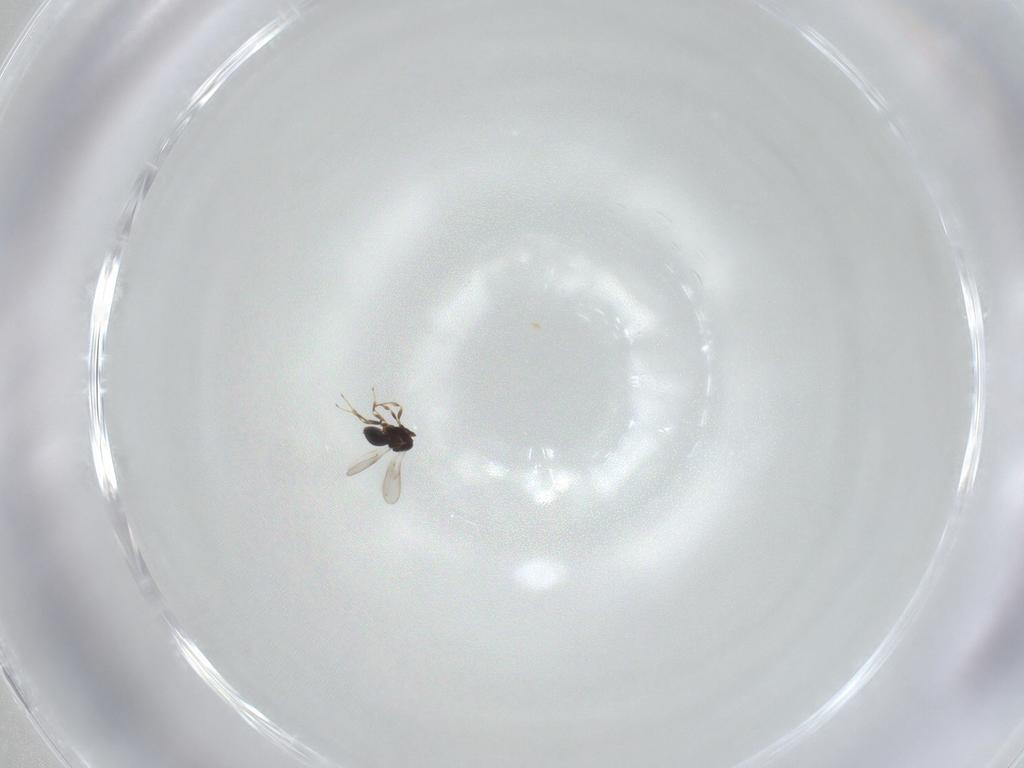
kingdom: Animalia
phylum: Arthropoda
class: Insecta
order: Hymenoptera
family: Scelionidae
